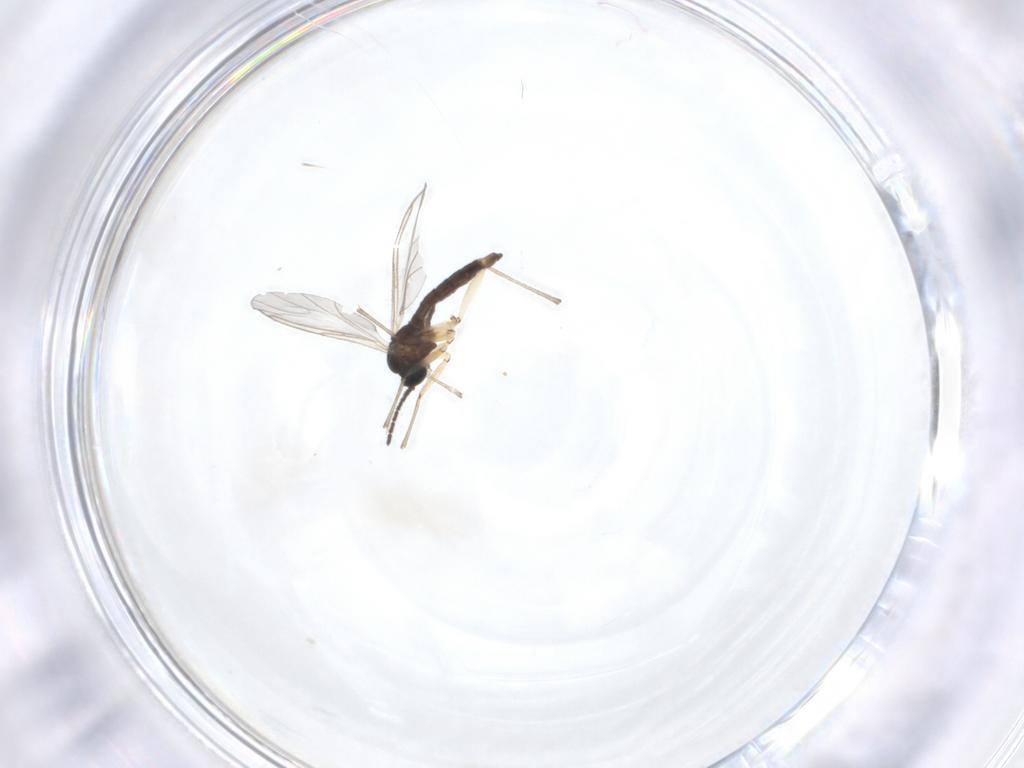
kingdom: Animalia
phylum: Arthropoda
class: Insecta
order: Diptera
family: Sciaridae
